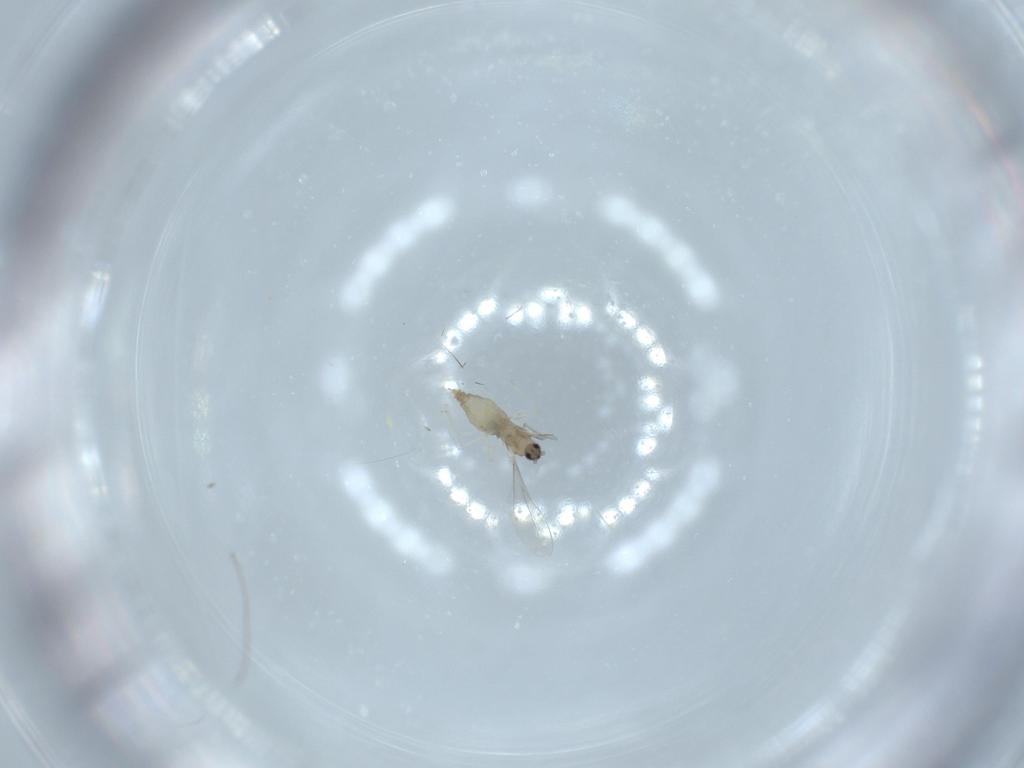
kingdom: Animalia
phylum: Arthropoda
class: Insecta
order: Diptera
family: Cecidomyiidae
